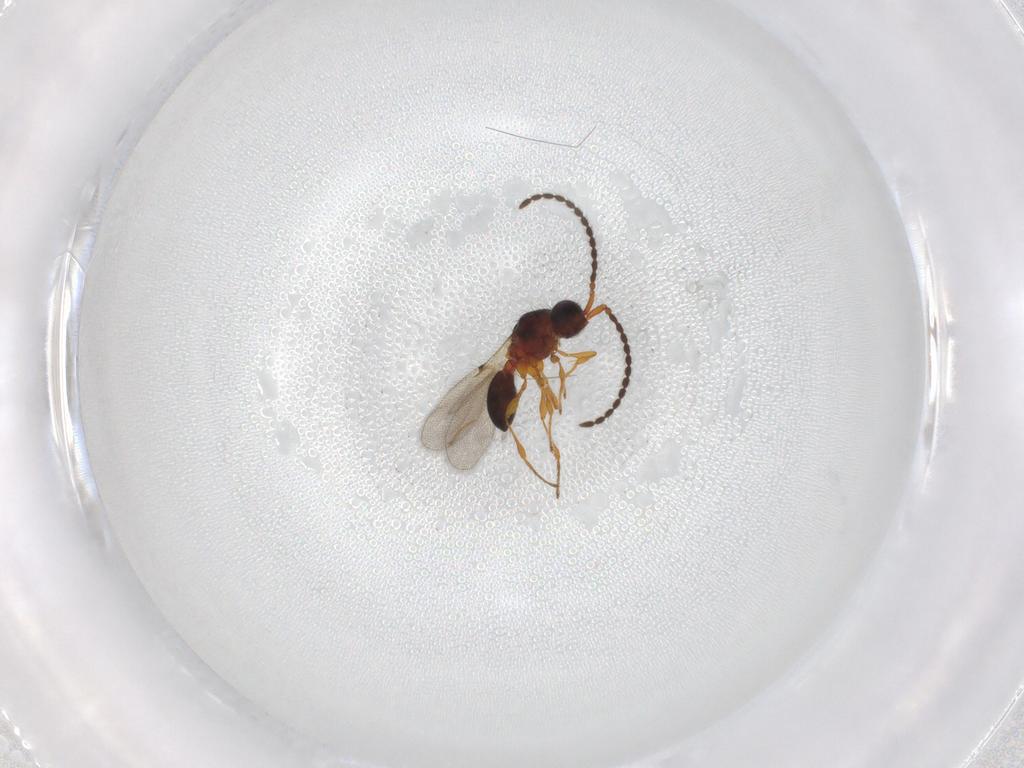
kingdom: Animalia
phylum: Arthropoda
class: Insecta
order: Hymenoptera
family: Diapriidae
